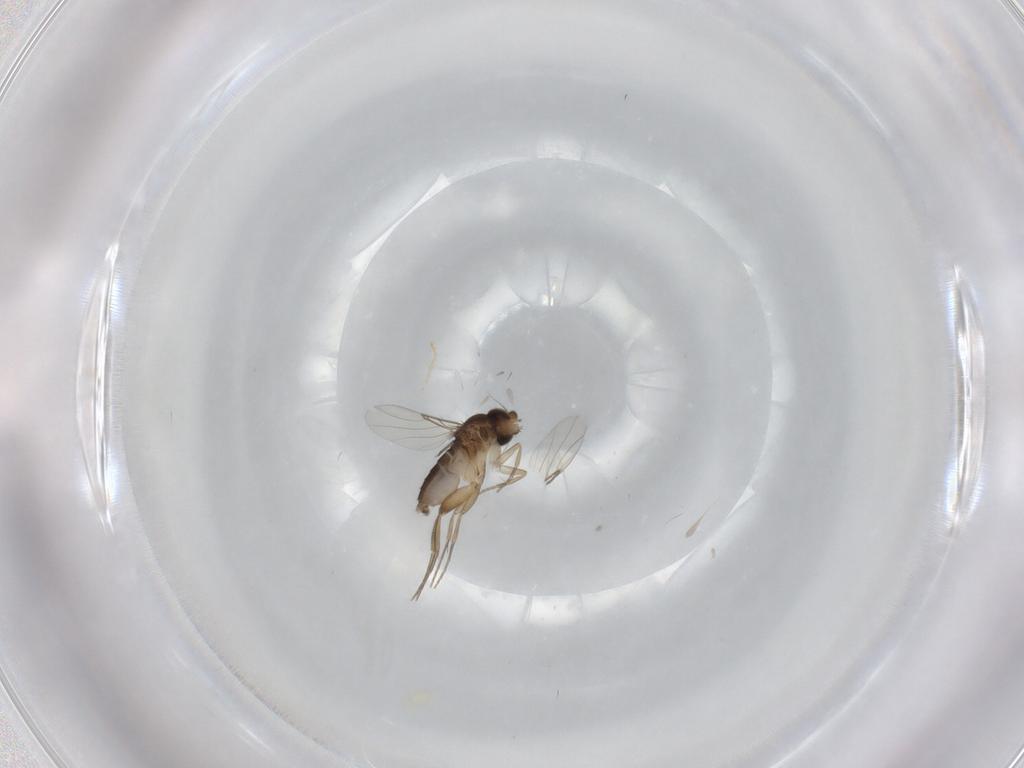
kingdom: Animalia
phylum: Arthropoda
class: Insecta
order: Diptera
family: Phoridae
